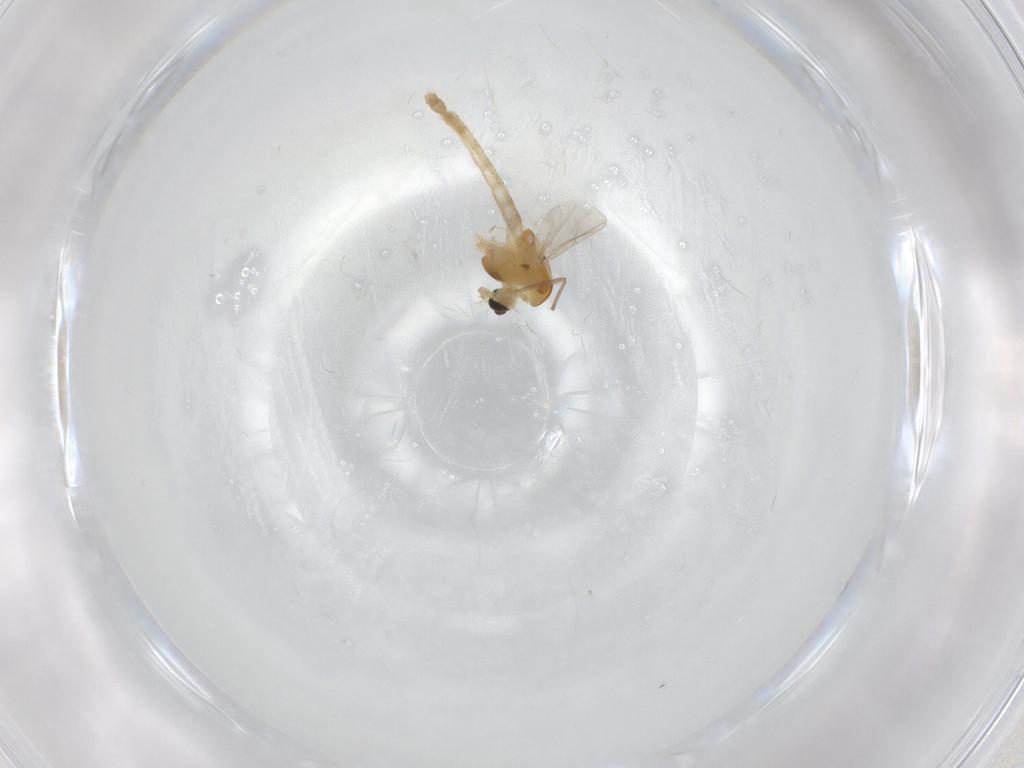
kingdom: Animalia
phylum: Arthropoda
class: Insecta
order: Diptera
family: Chironomidae
